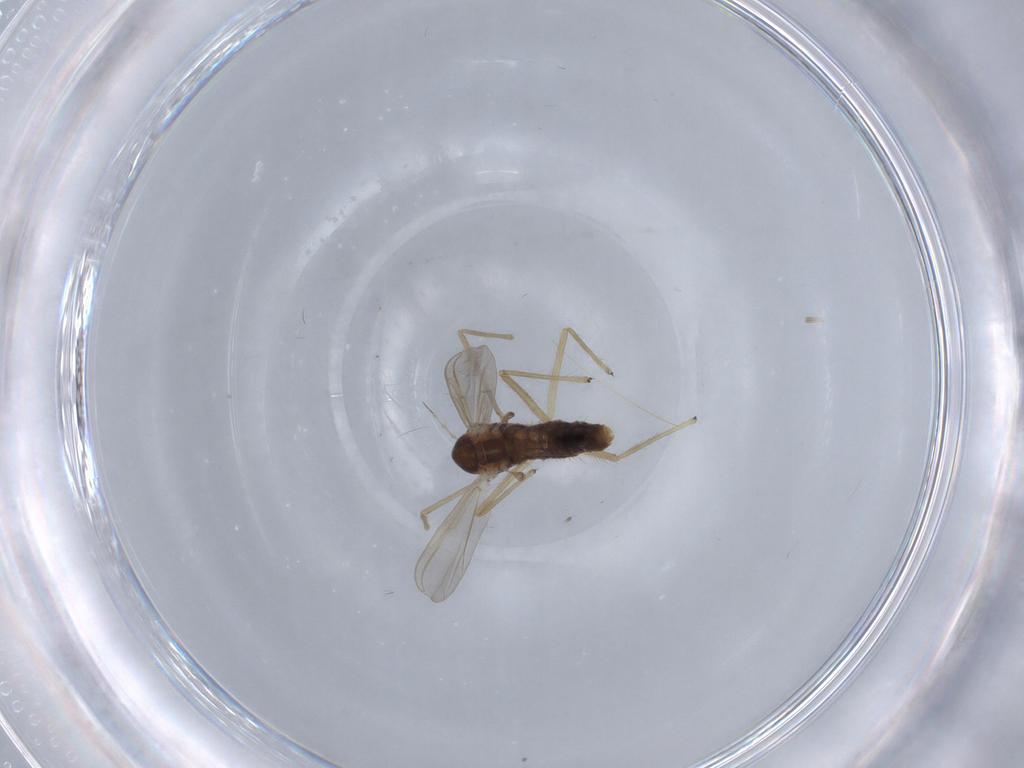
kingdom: Animalia
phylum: Arthropoda
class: Insecta
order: Diptera
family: Chironomidae
